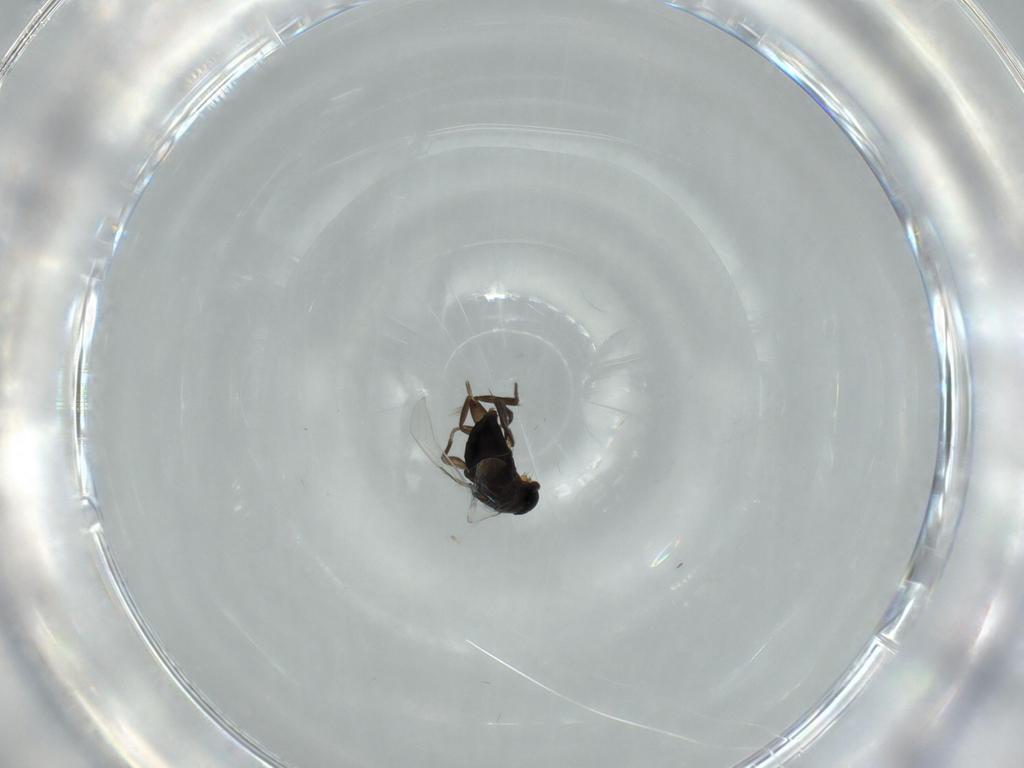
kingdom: Animalia
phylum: Arthropoda
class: Insecta
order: Diptera
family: Phoridae
